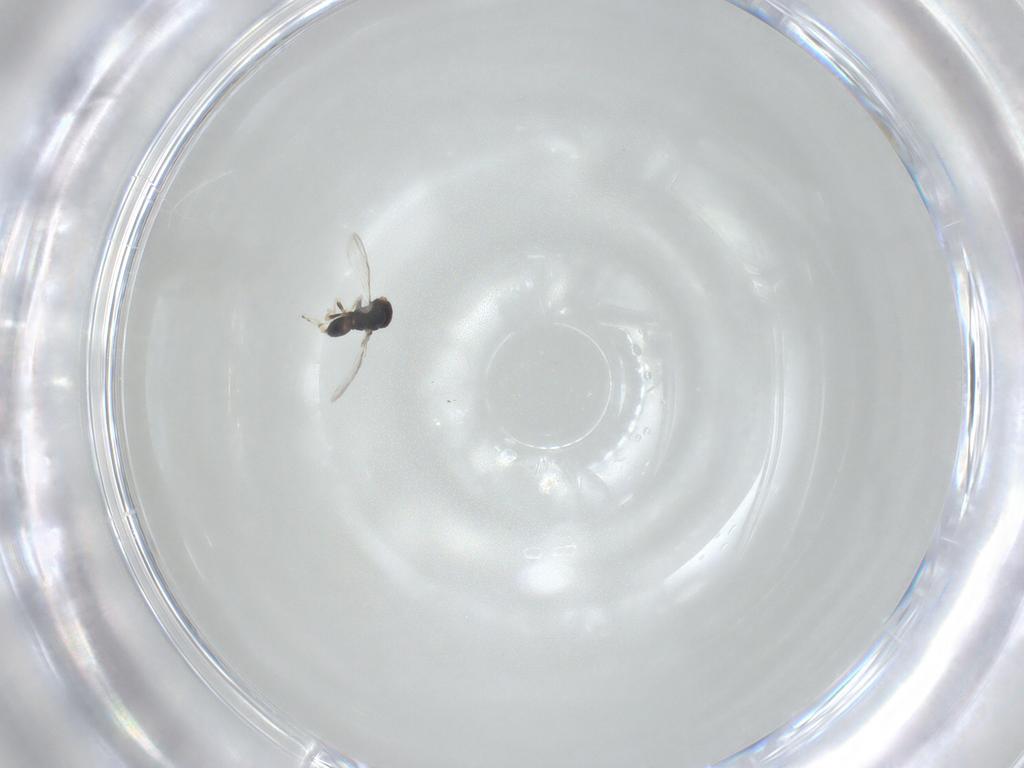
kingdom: Animalia
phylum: Arthropoda
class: Insecta
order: Hymenoptera
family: Eulophidae
